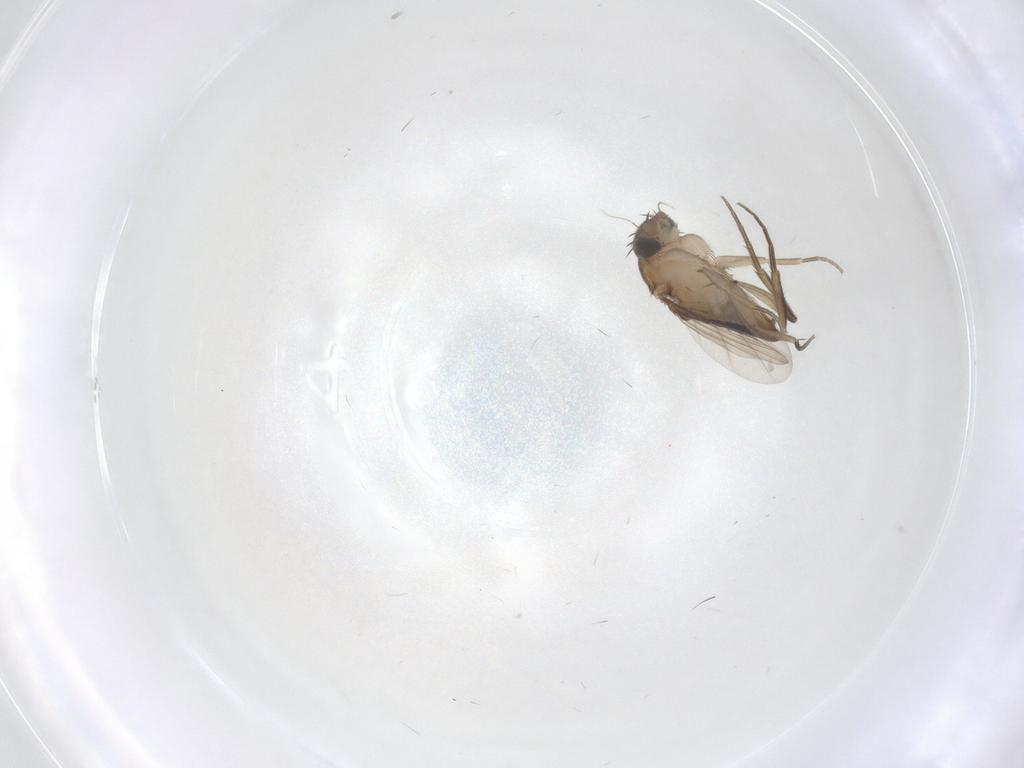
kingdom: Animalia
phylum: Arthropoda
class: Insecta
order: Diptera
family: Phoridae
